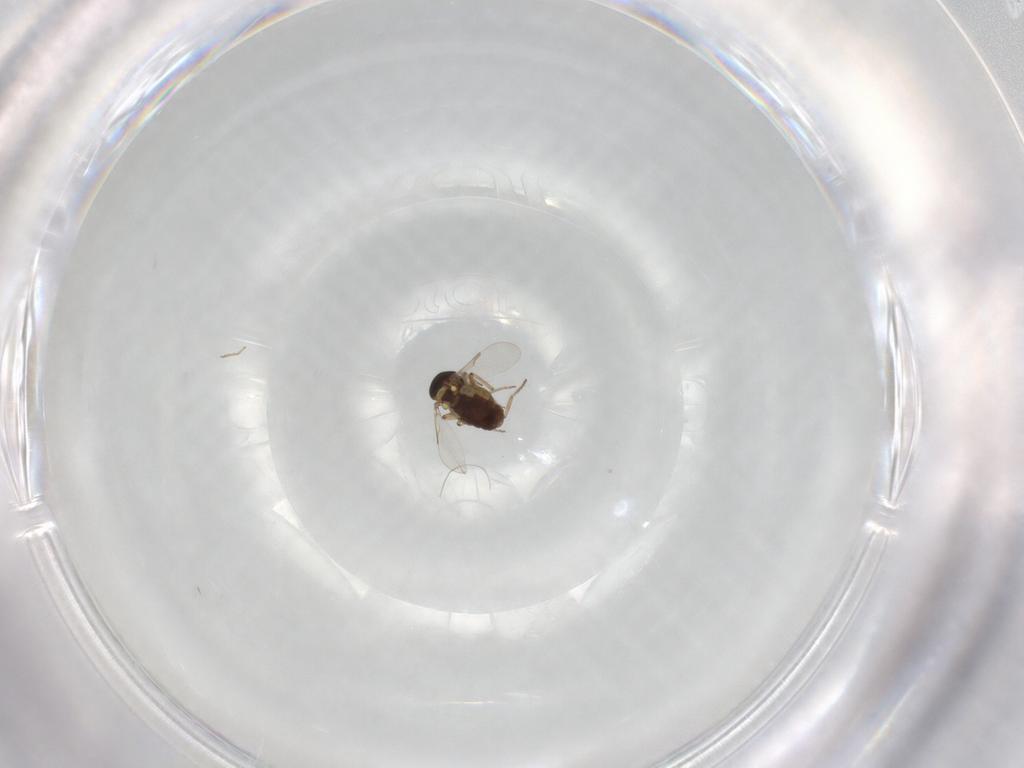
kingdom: Animalia
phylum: Arthropoda
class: Insecta
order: Diptera
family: Ceratopogonidae
